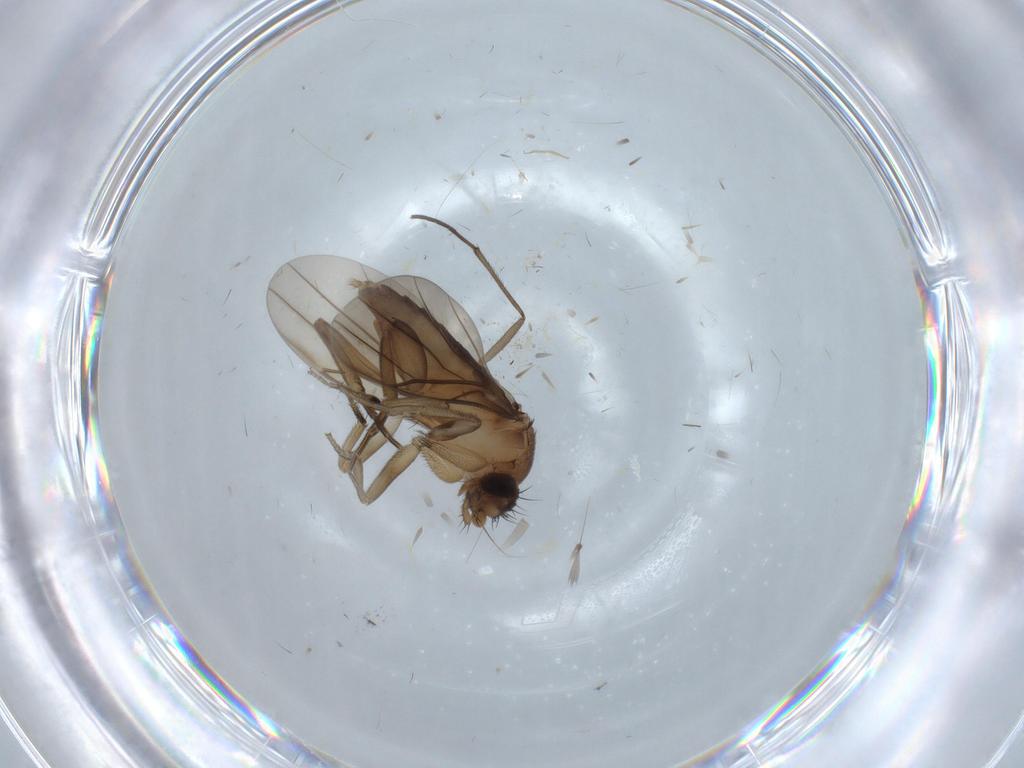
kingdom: Animalia
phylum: Arthropoda
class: Insecta
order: Diptera
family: Phoridae
